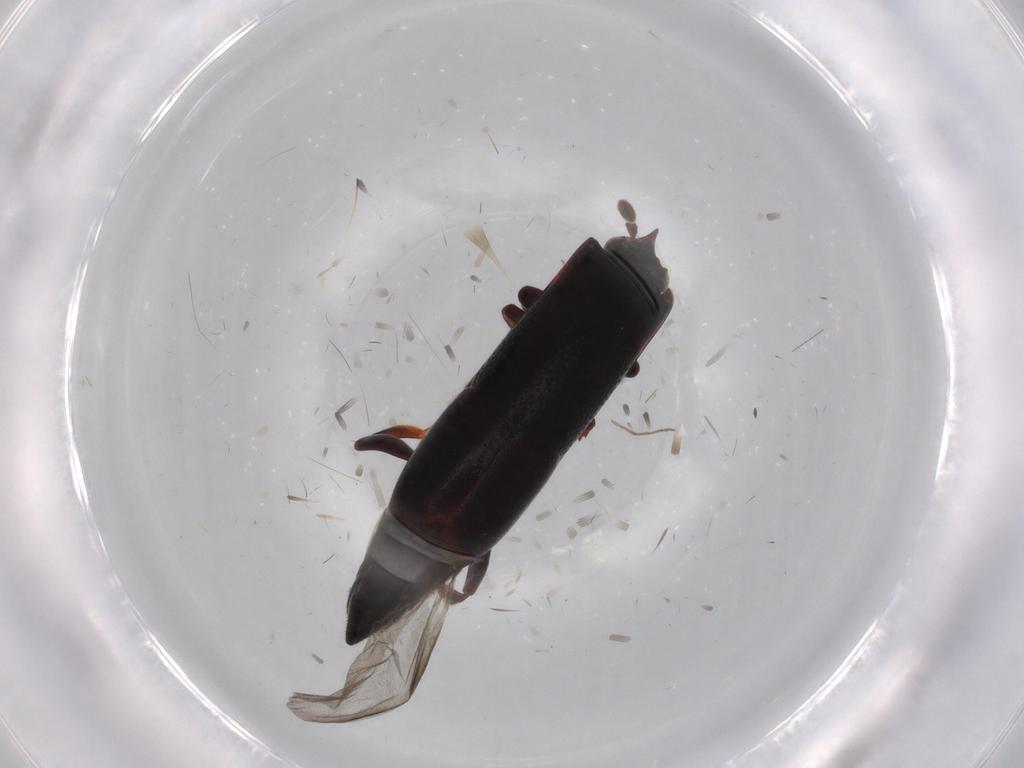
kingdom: Animalia
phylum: Arthropoda
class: Insecta
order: Coleoptera
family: Histeridae
